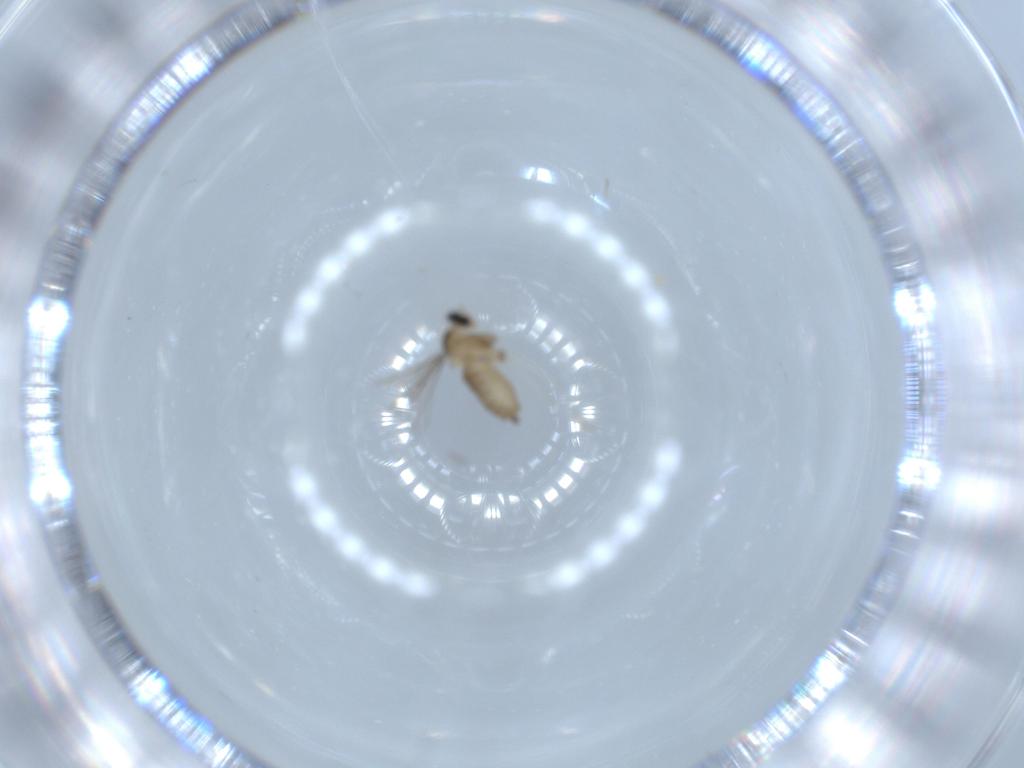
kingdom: Animalia
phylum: Arthropoda
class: Insecta
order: Diptera
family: Cecidomyiidae
